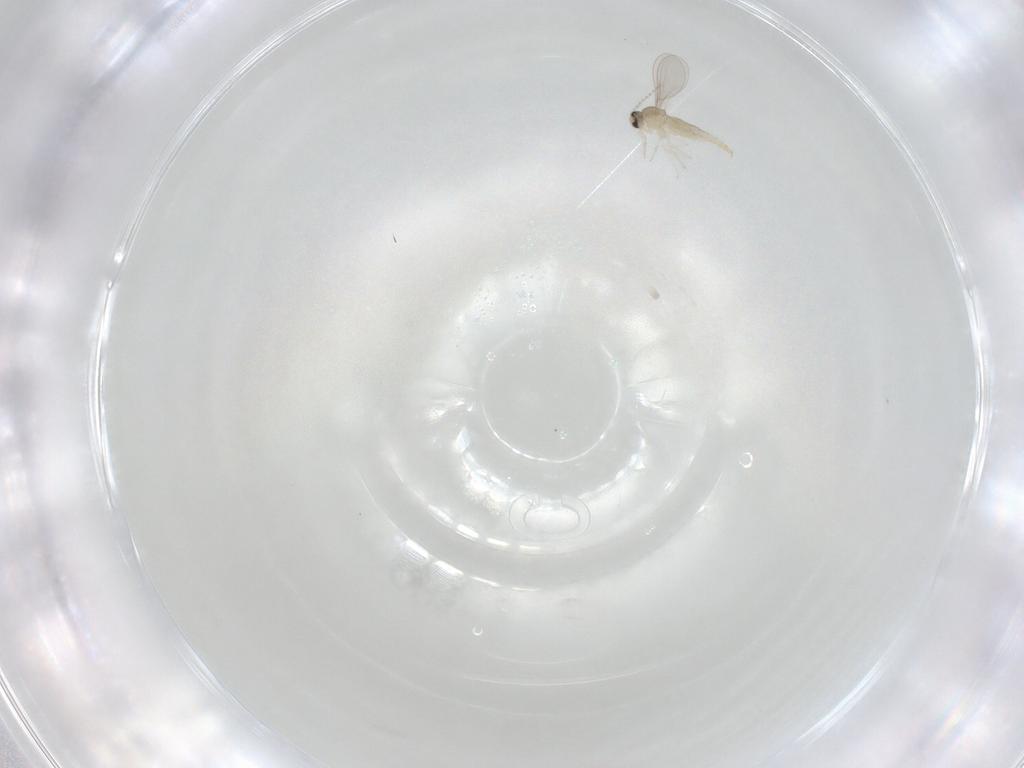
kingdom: Animalia
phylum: Arthropoda
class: Insecta
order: Diptera
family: Cecidomyiidae
